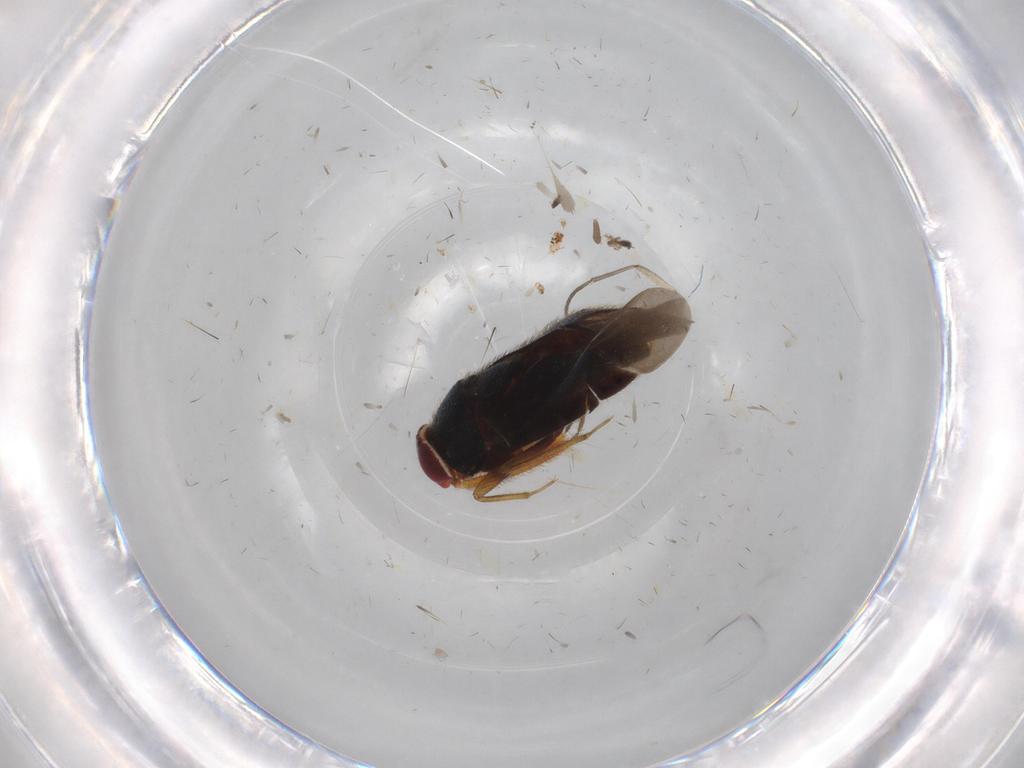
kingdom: Animalia
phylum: Arthropoda
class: Insecta
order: Hemiptera
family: Miridae
